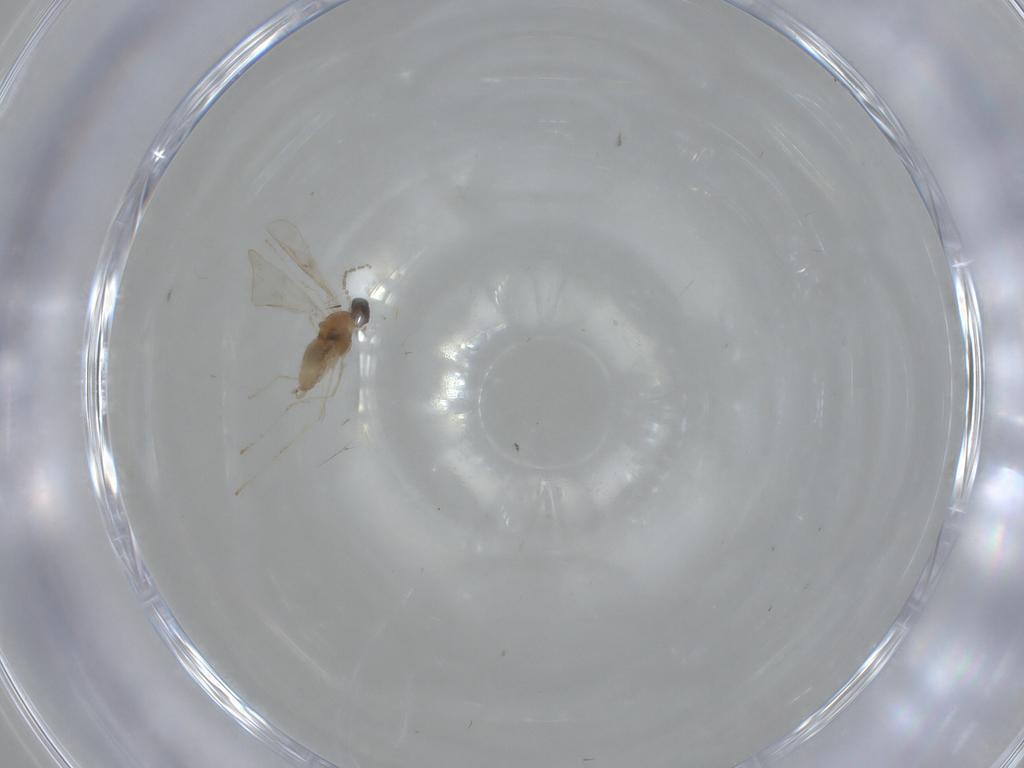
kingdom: Animalia
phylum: Arthropoda
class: Insecta
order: Diptera
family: Cecidomyiidae
